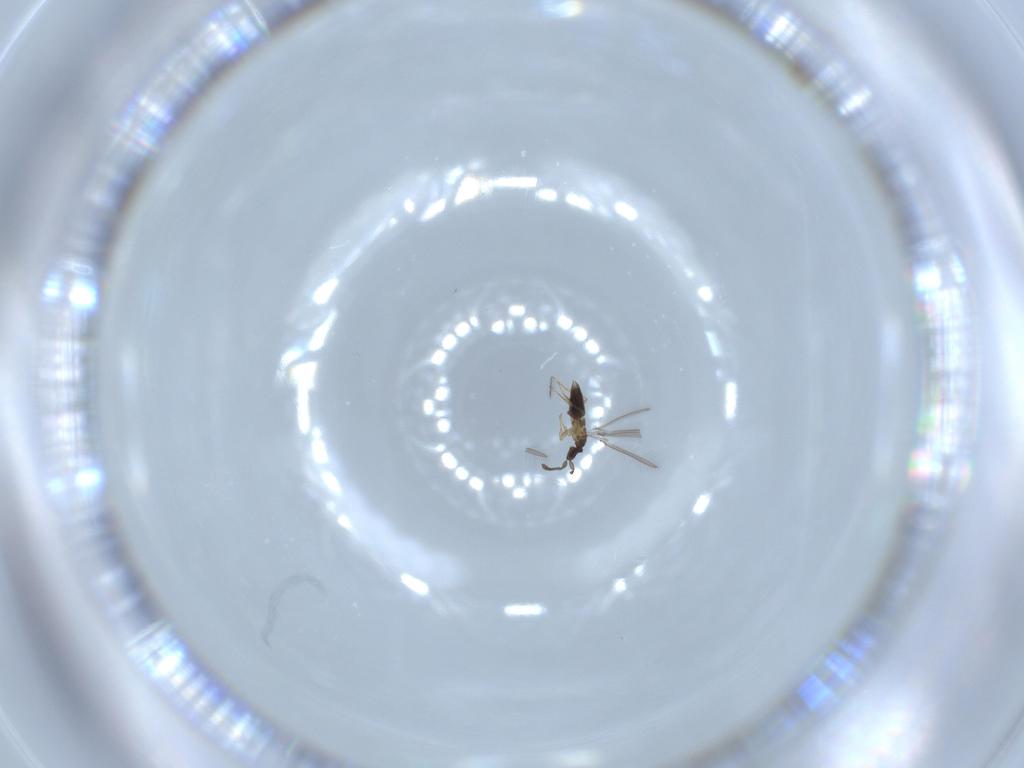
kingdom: Animalia
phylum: Arthropoda
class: Insecta
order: Hymenoptera
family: Mymaridae
